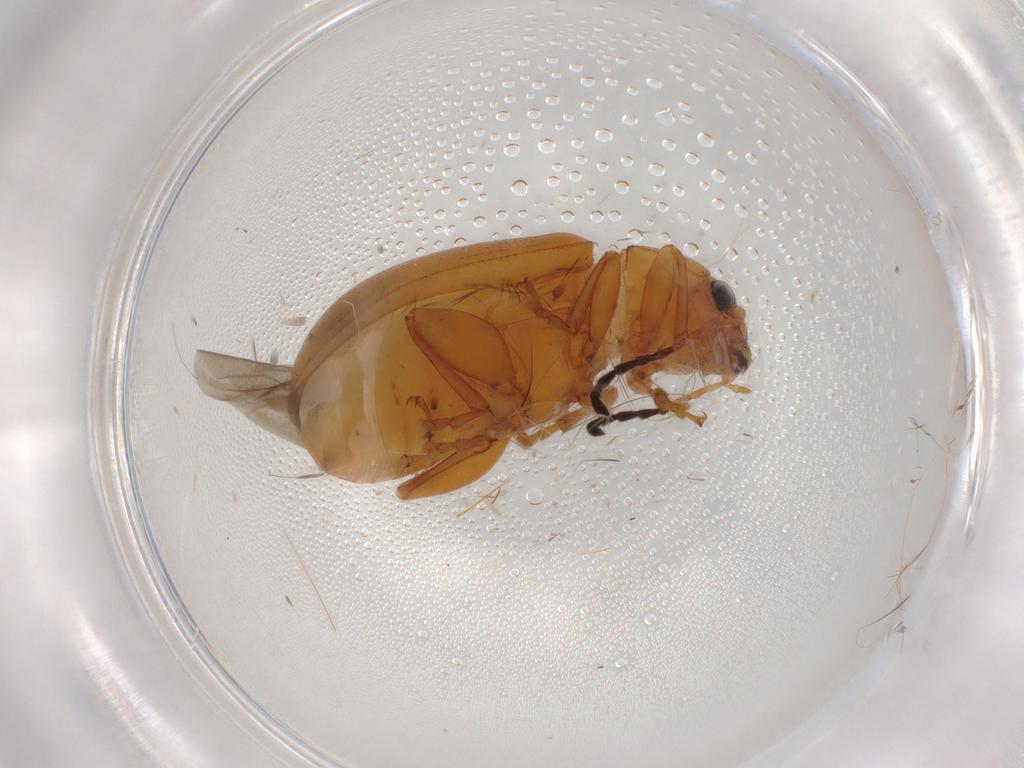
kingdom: Animalia
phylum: Arthropoda
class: Insecta
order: Coleoptera
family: Chrysomelidae
